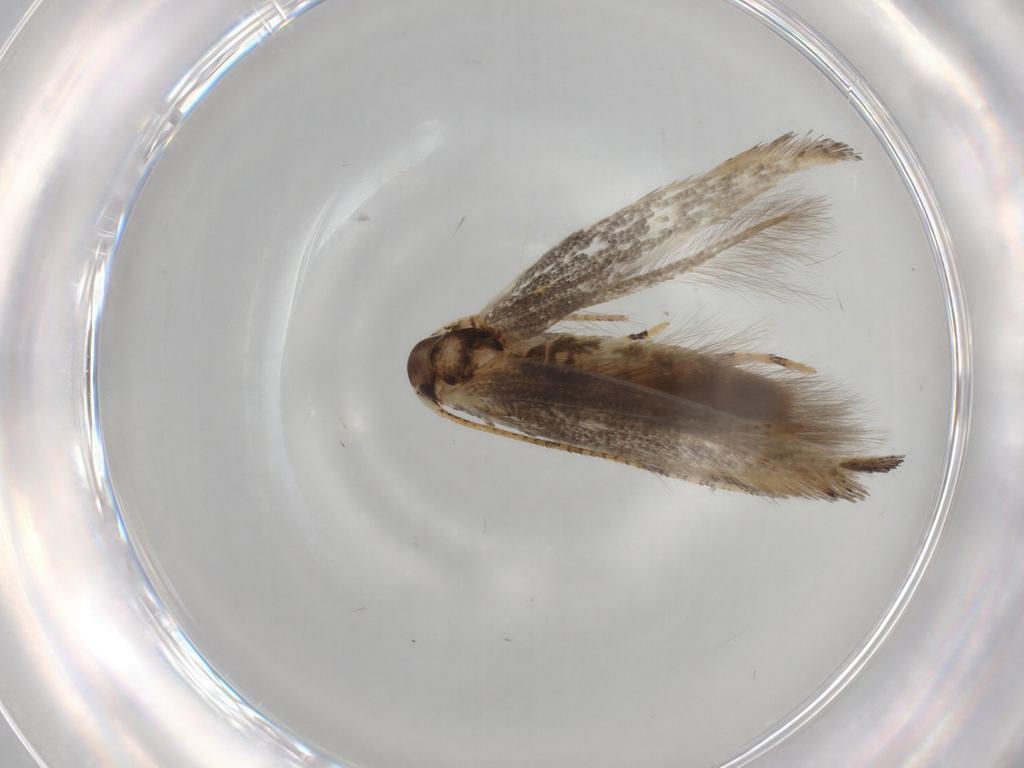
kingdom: Animalia
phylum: Arthropoda
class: Insecta
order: Lepidoptera
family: Cosmopterigidae
